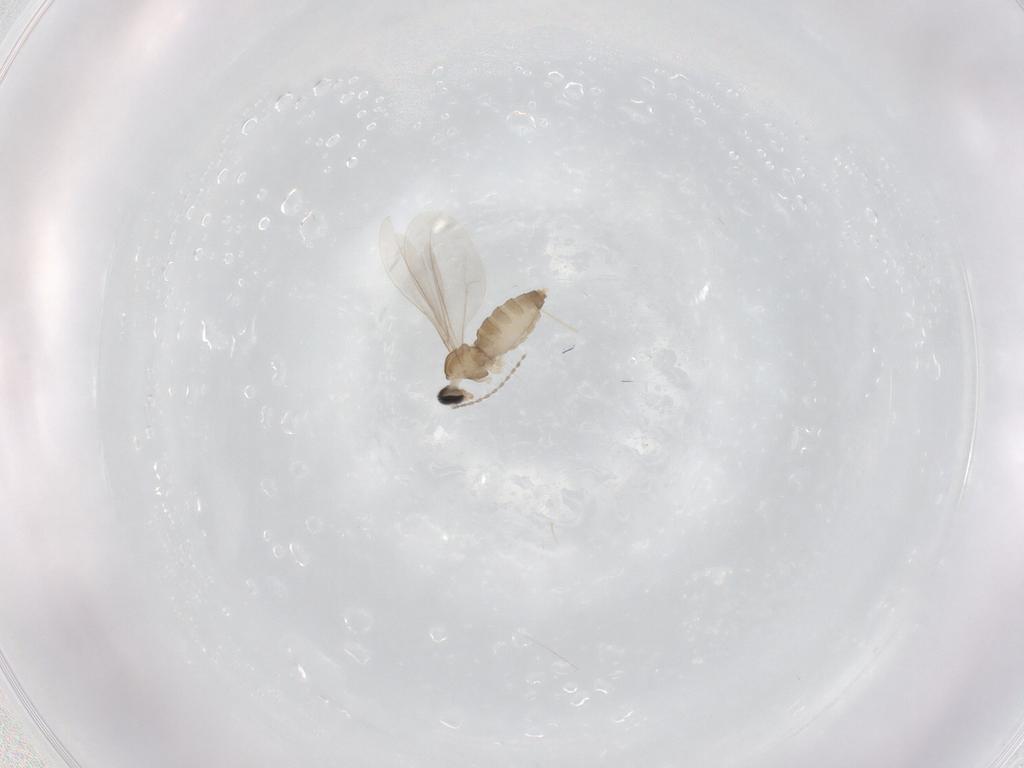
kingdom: Animalia
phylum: Arthropoda
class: Insecta
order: Diptera
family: Cecidomyiidae
